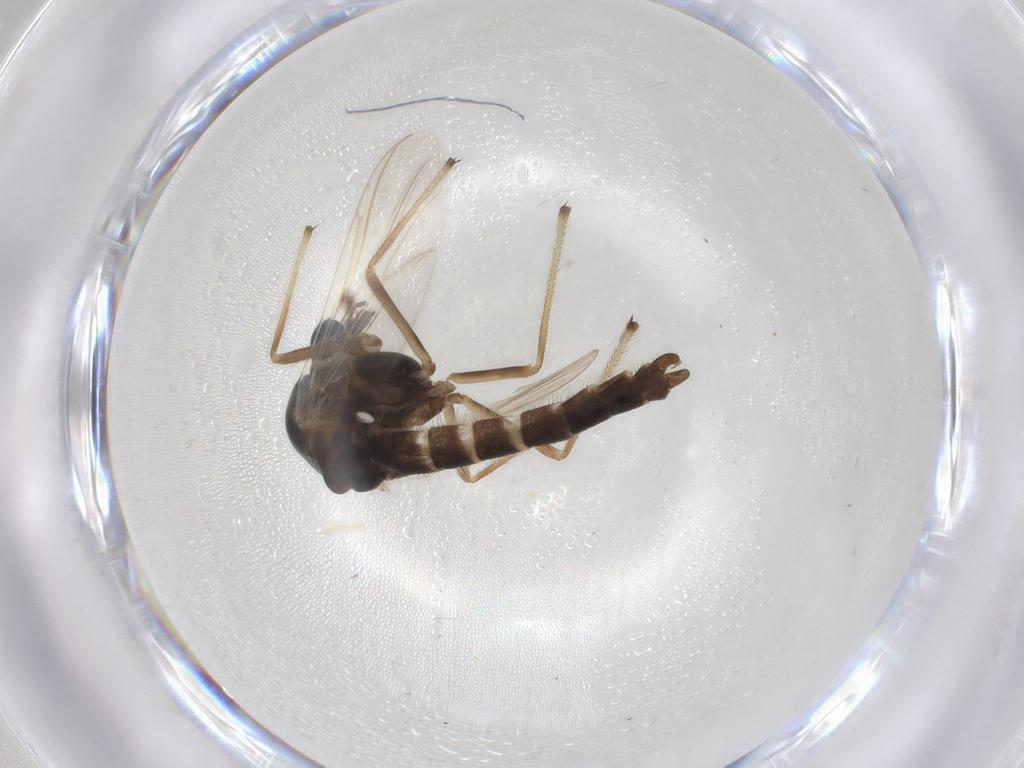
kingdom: Animalia
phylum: Arthropoda
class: Insecta
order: Diptera
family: Chironomidae
